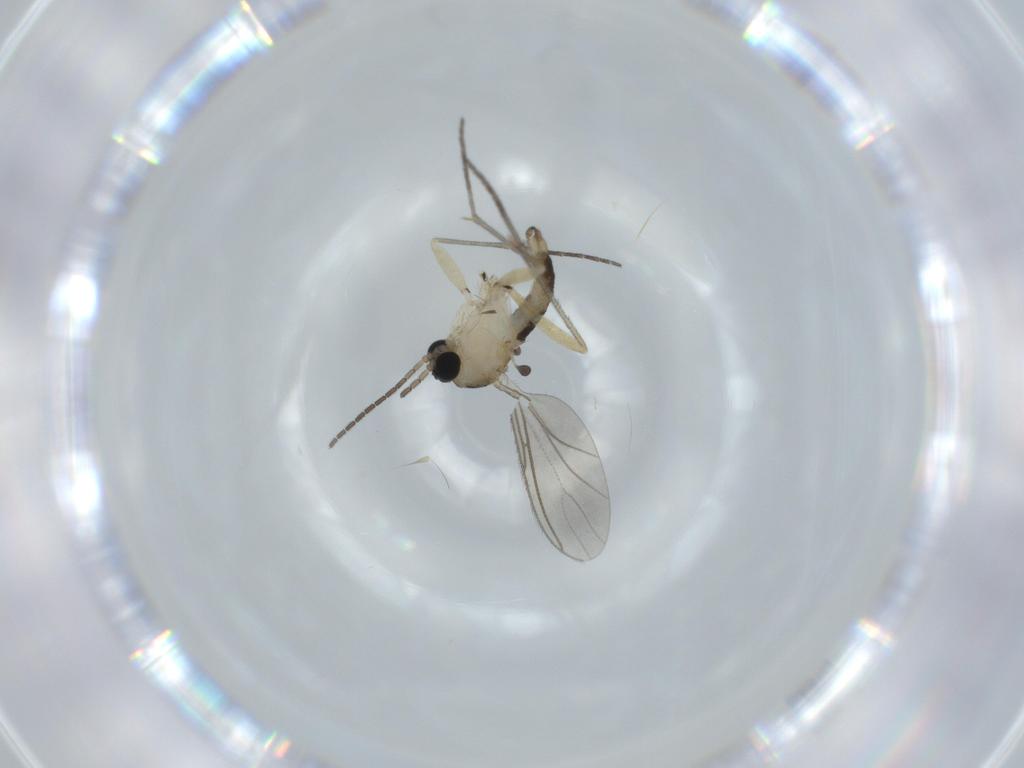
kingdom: Animalia
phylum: Arthropoda
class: Insecta
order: Diptera
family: Sciaridae
